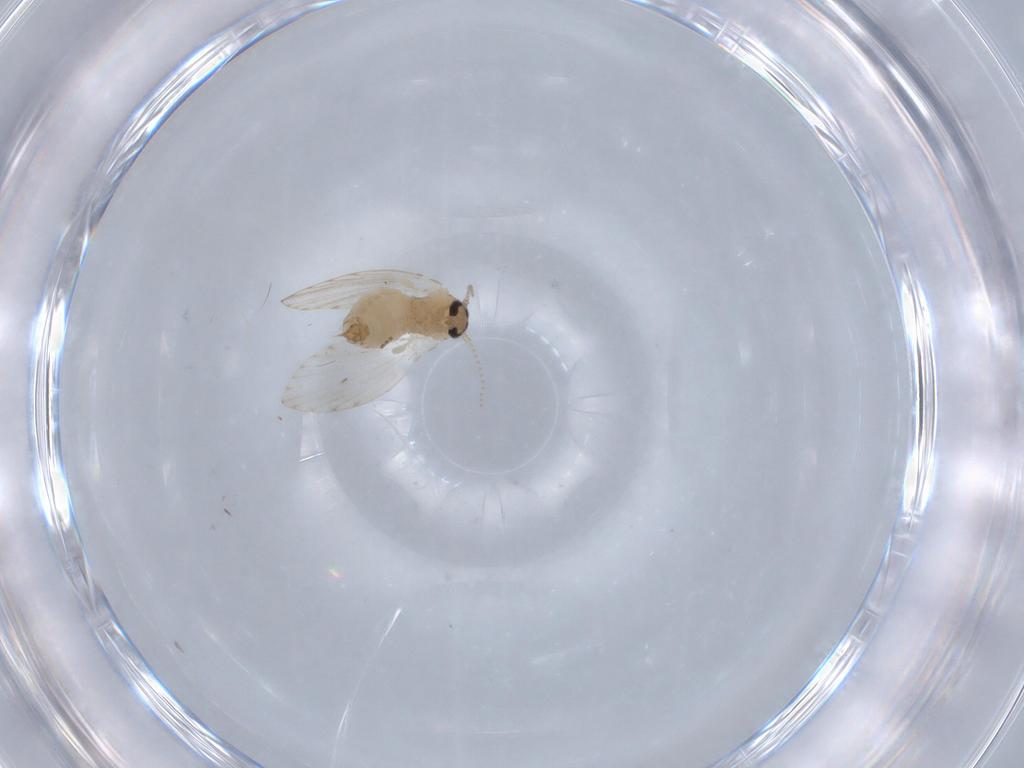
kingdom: Animalia
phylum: Arthropoda
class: Insecta
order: Diptera
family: Psychodidae
